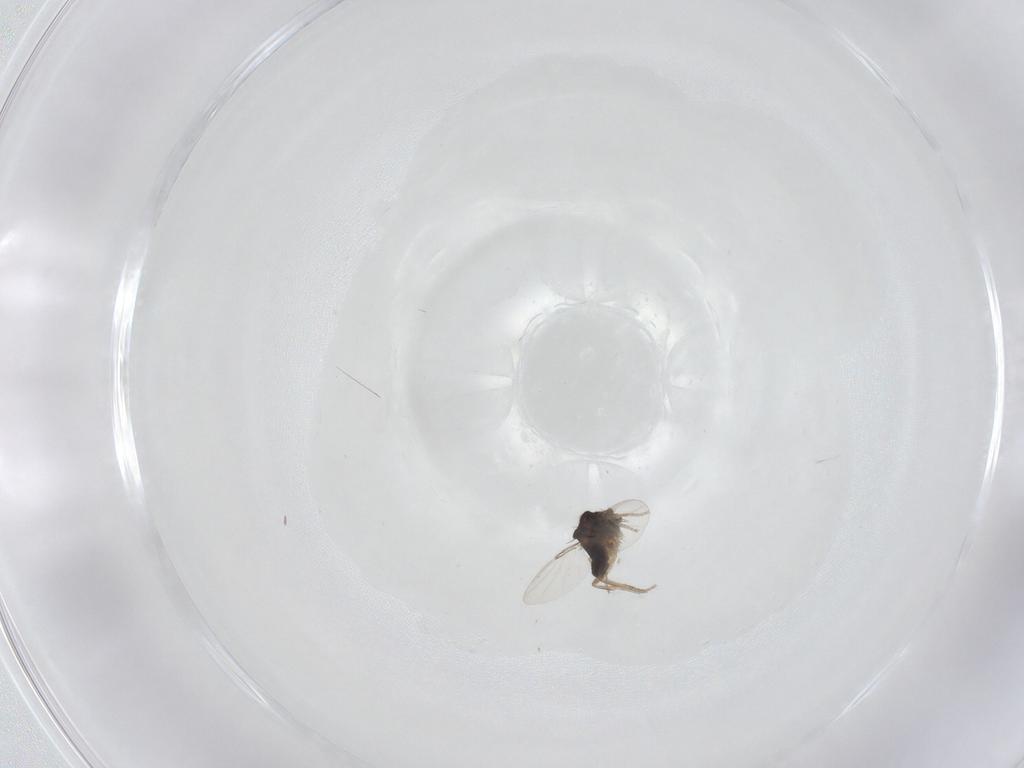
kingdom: Animalia
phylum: Arthropoda
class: Insecta
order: Diptera
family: Phoridae
